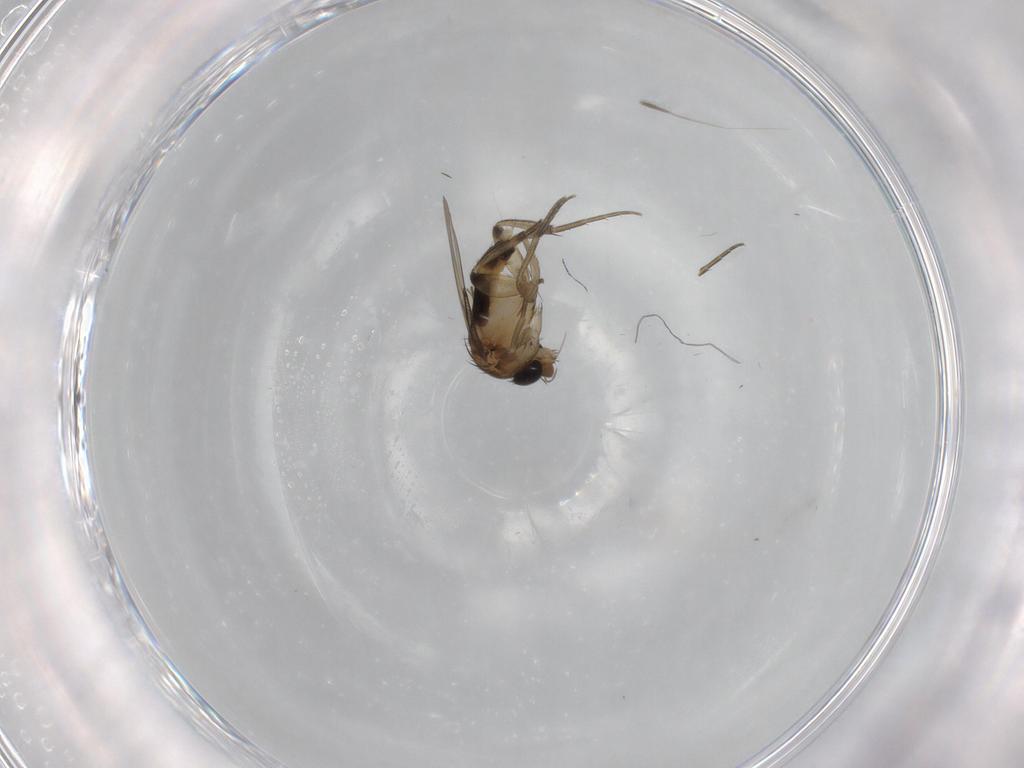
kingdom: Animalia
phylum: Arthropoda
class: Insecta
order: Diptera
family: Phoridae
